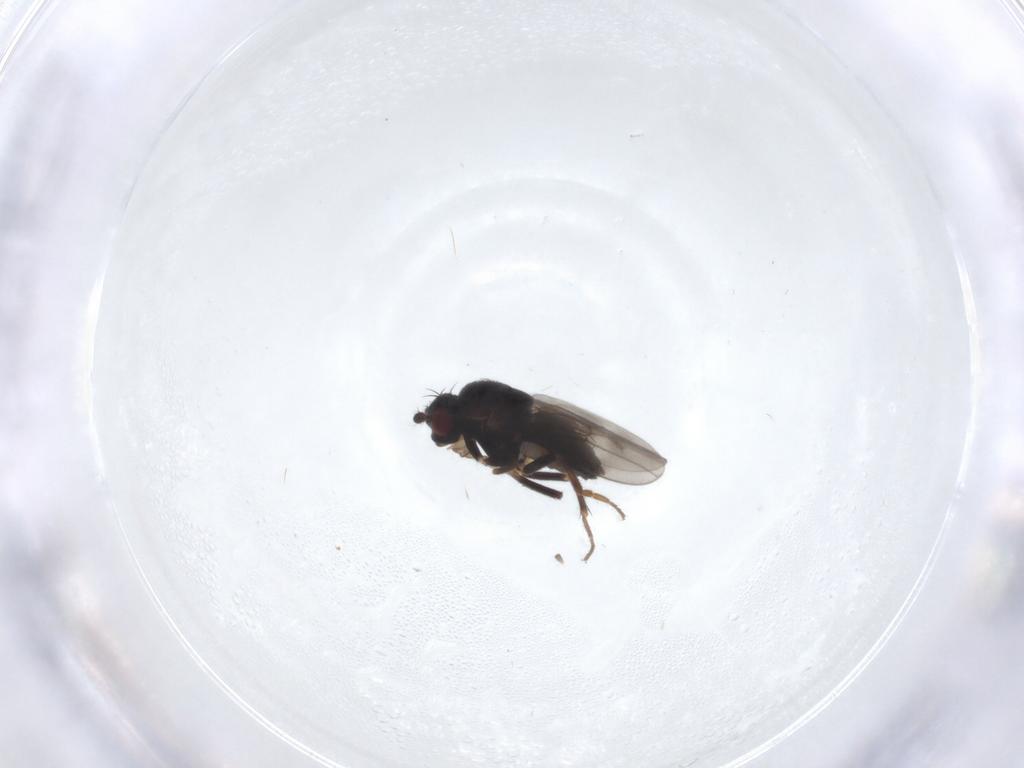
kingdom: Animalia
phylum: Arthropoda
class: Insecta
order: Diptera
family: Sphaeroceridae
